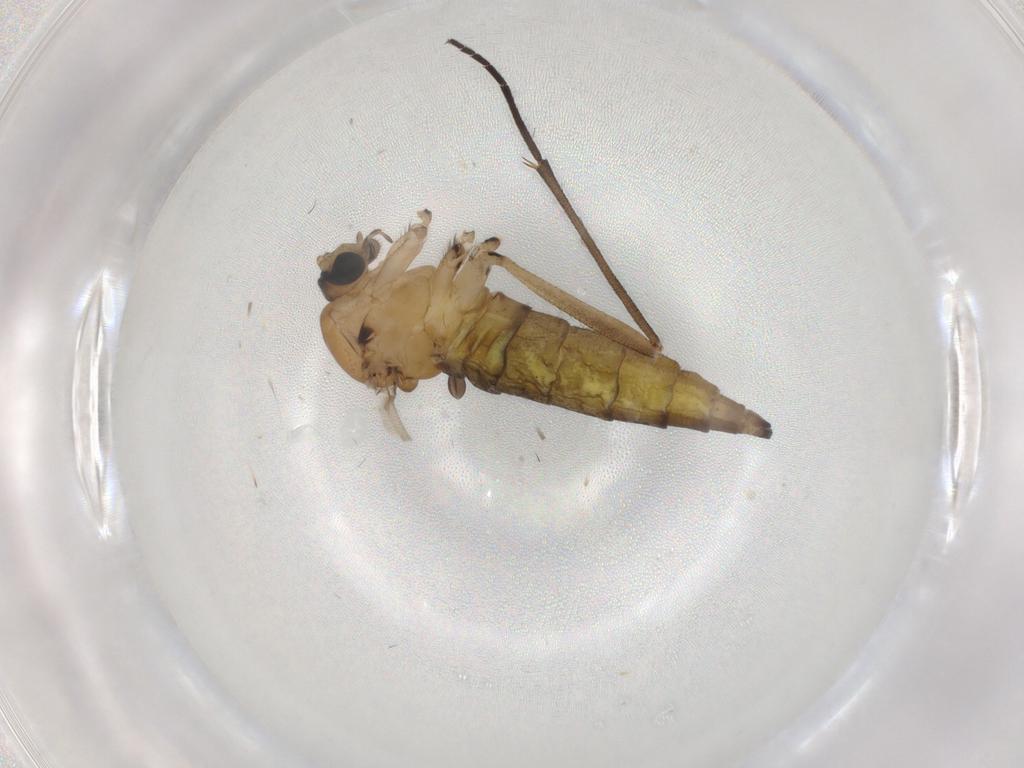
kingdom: Animalia
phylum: Arthropoda
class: Insecta
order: Diptera
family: Sciaridae
